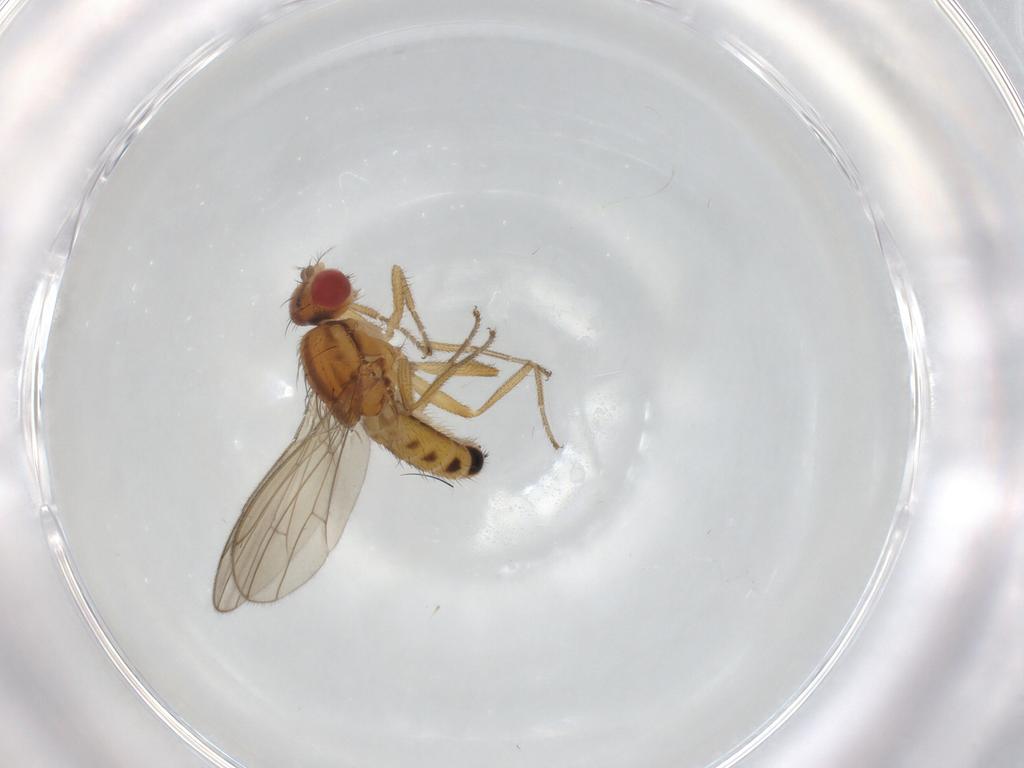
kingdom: Animalia
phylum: Arthropoda
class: Insecta
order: Diptera
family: Drosophilidae
